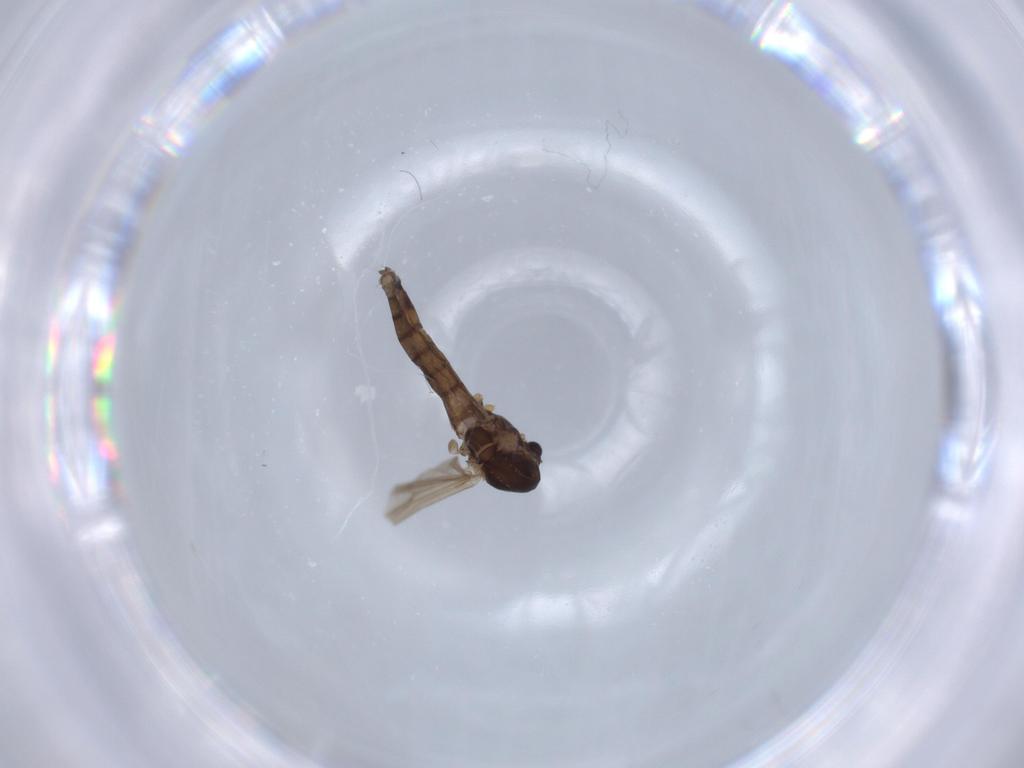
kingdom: Animalia
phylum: Arthropoda
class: Insecta
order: Diptera
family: Chironomidae
